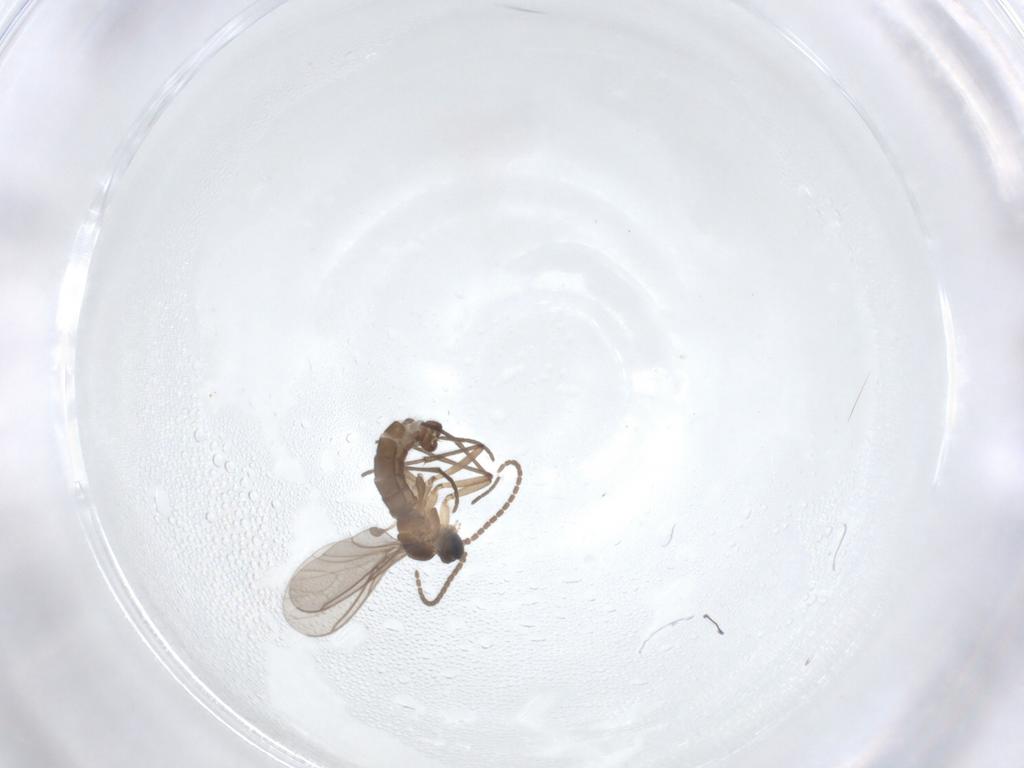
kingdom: Animalia
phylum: Arthropoda
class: Insecta
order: Diptera
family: Sciaridae
